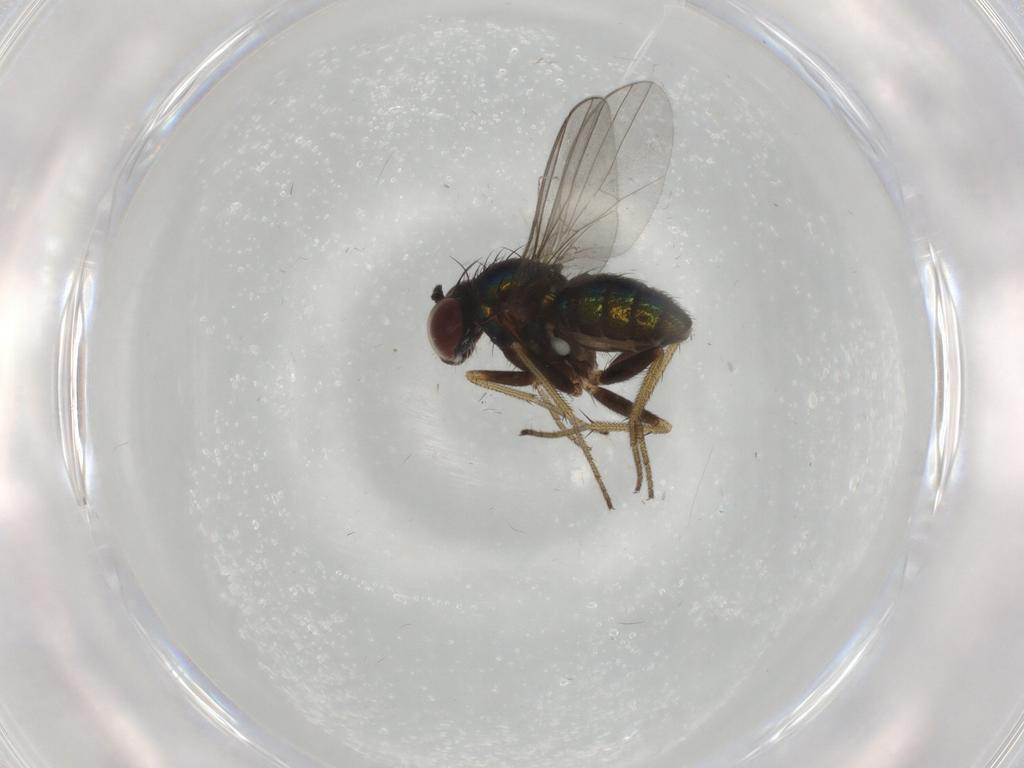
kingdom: Animalia
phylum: Arthropoda
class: Insecta
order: Diptera
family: Cecidomyiidae
